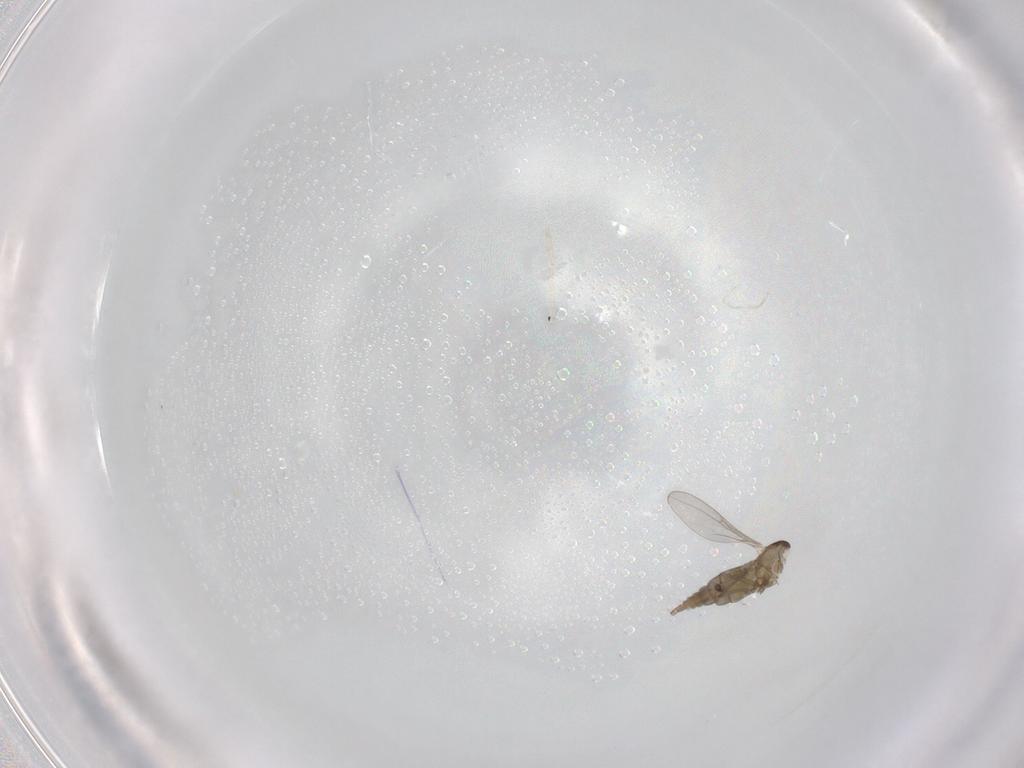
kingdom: Animalia
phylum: Arthropoda
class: Insecta
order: Diptera
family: Cecidomyiidae
